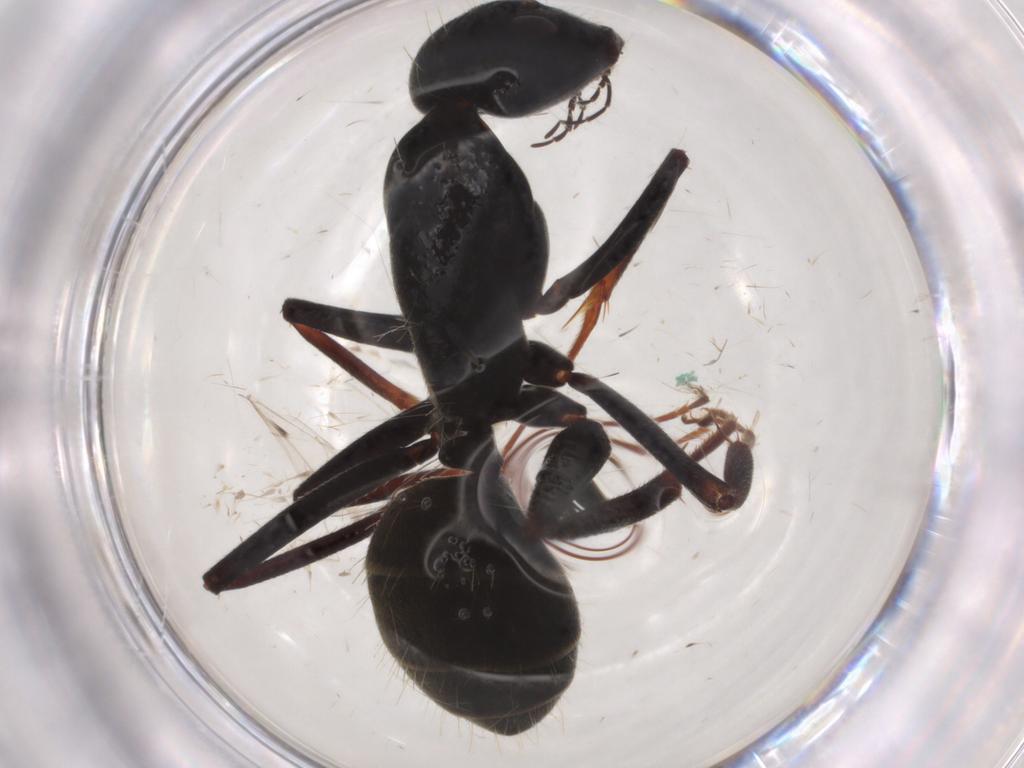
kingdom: Animalia
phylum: Arthropoda
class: Insecta
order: Hymenoptera
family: Formicidae
